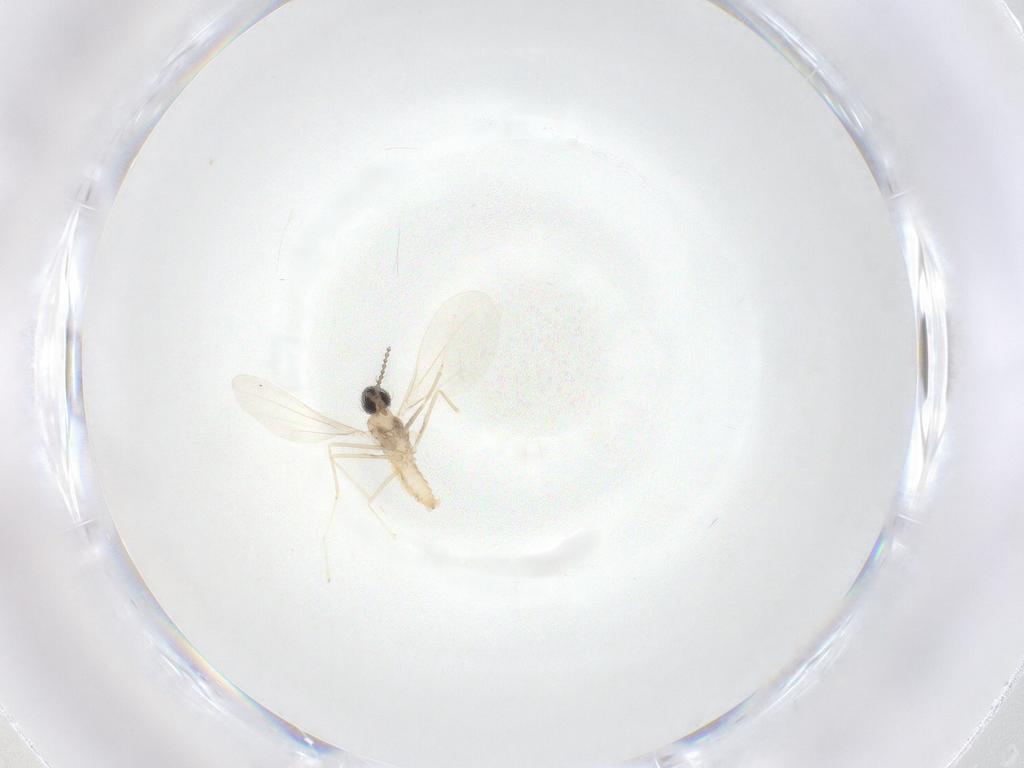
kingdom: Animalia
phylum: Arthropoda
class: Insecta
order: Diptera
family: Cecidomyiidae
